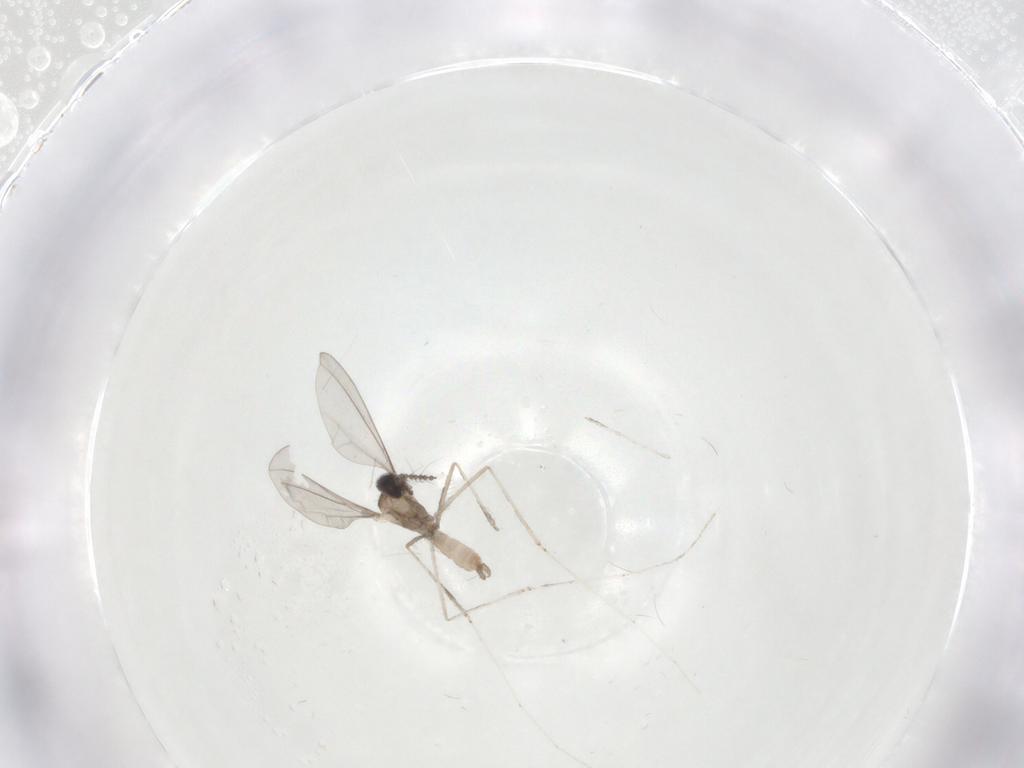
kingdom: Animalia
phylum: Arthropoda
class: Insecta
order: Diptera
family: Cecidomyiidae
